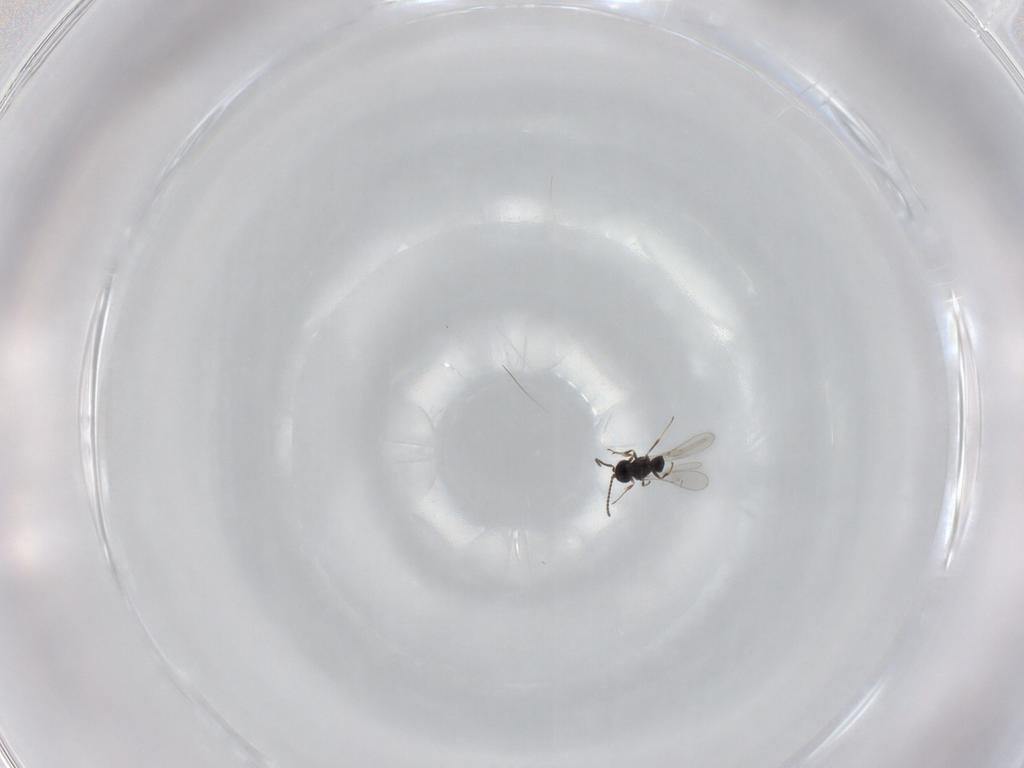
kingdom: Animalia
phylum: Arthropoda
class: Insecta
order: Hymenoptera
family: Scelionidae
